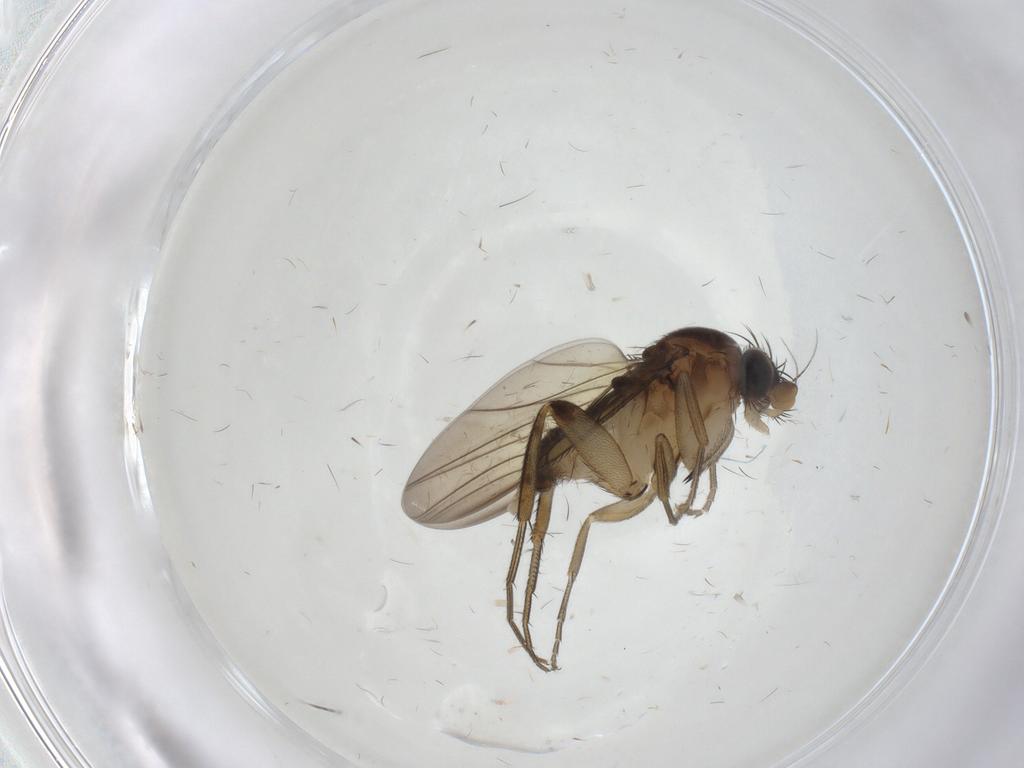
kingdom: Animalia
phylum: Arthropoda
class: Insecta
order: Diptera
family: Phoridae
